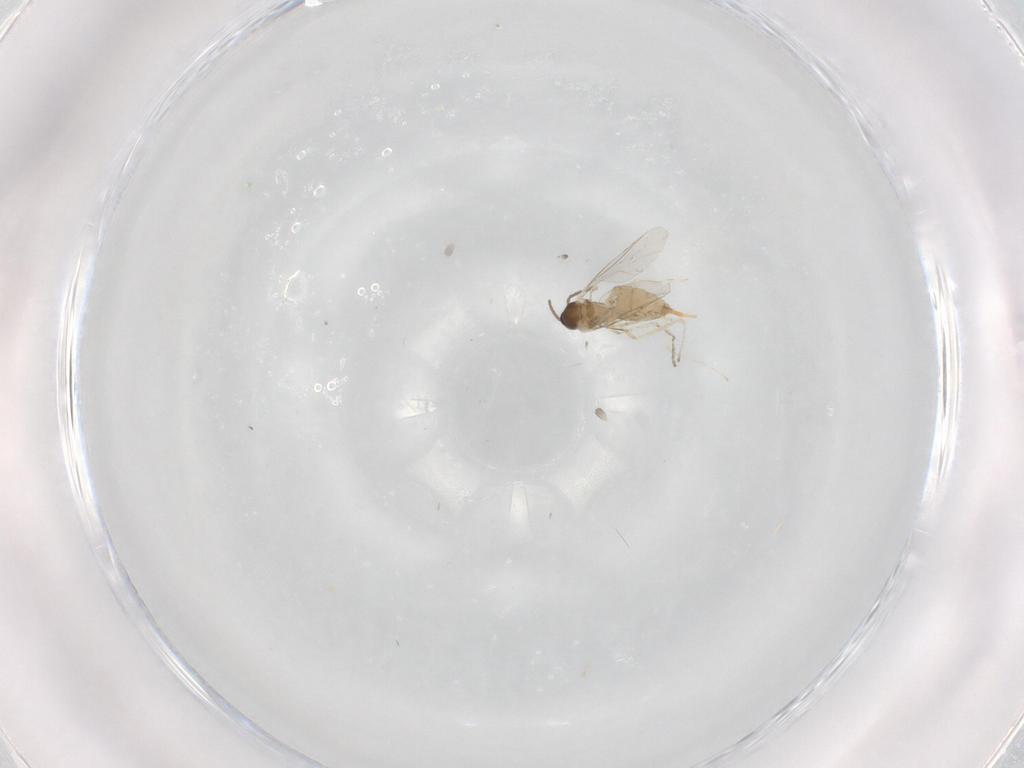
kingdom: Animalia
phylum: Arthropoda
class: Insecta
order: Diptera
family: Cecidomyiidae
